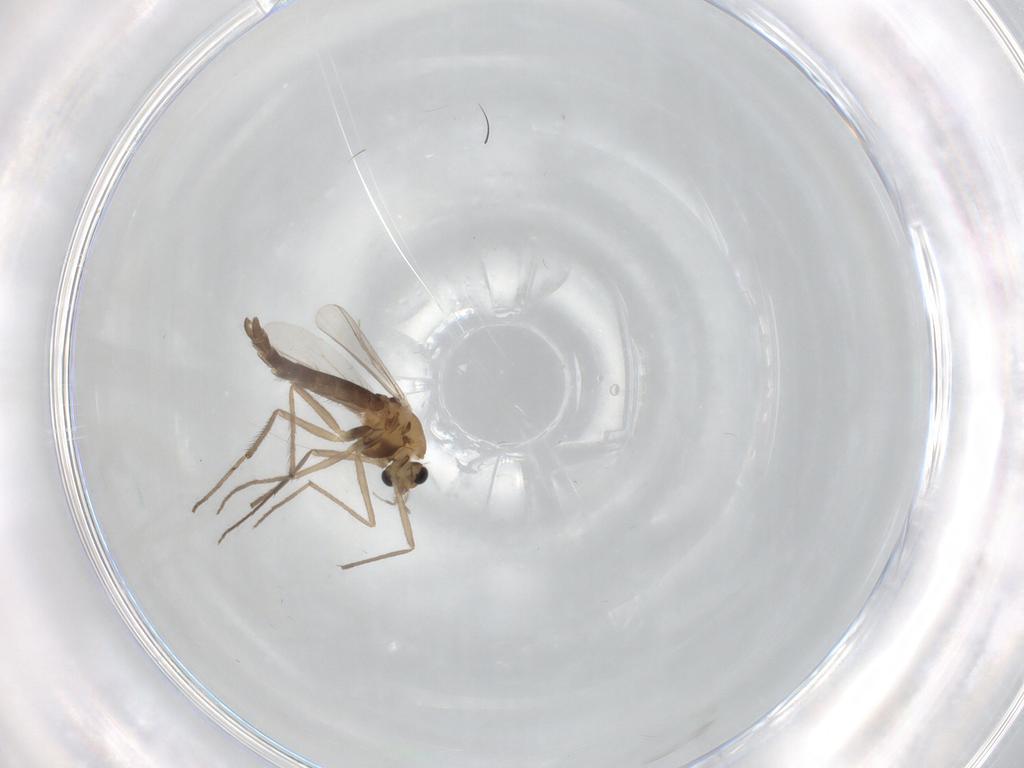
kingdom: Animalia
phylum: Arthropoda
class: Insecta
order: Diptera
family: Chironomidae
